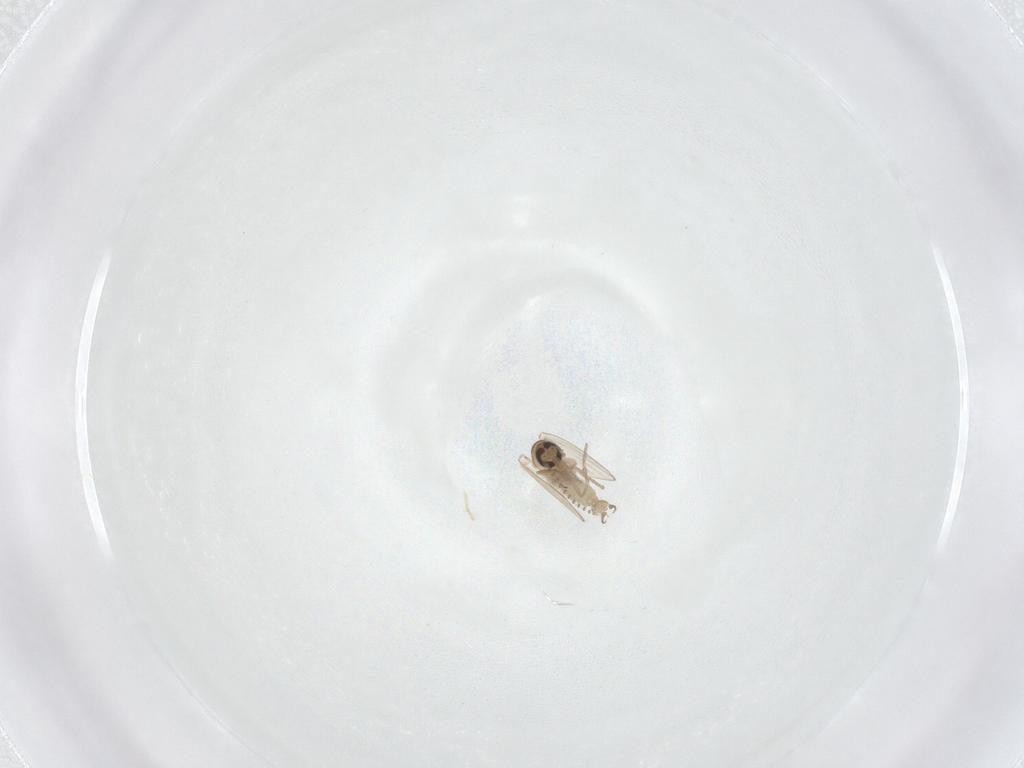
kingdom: Animalia
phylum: Arthropoda
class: Insecta
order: Diptera
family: Psychodidae
